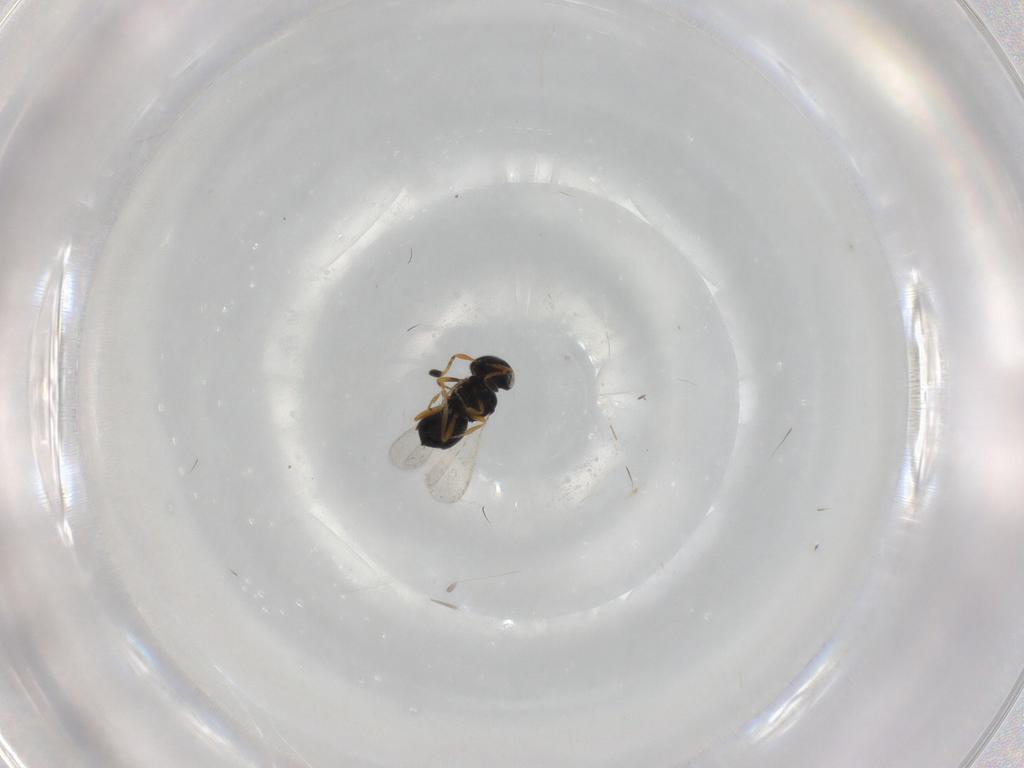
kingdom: Animalia
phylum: Arthropoda
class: Insecta
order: Hymenoptera
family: Scelionidae
